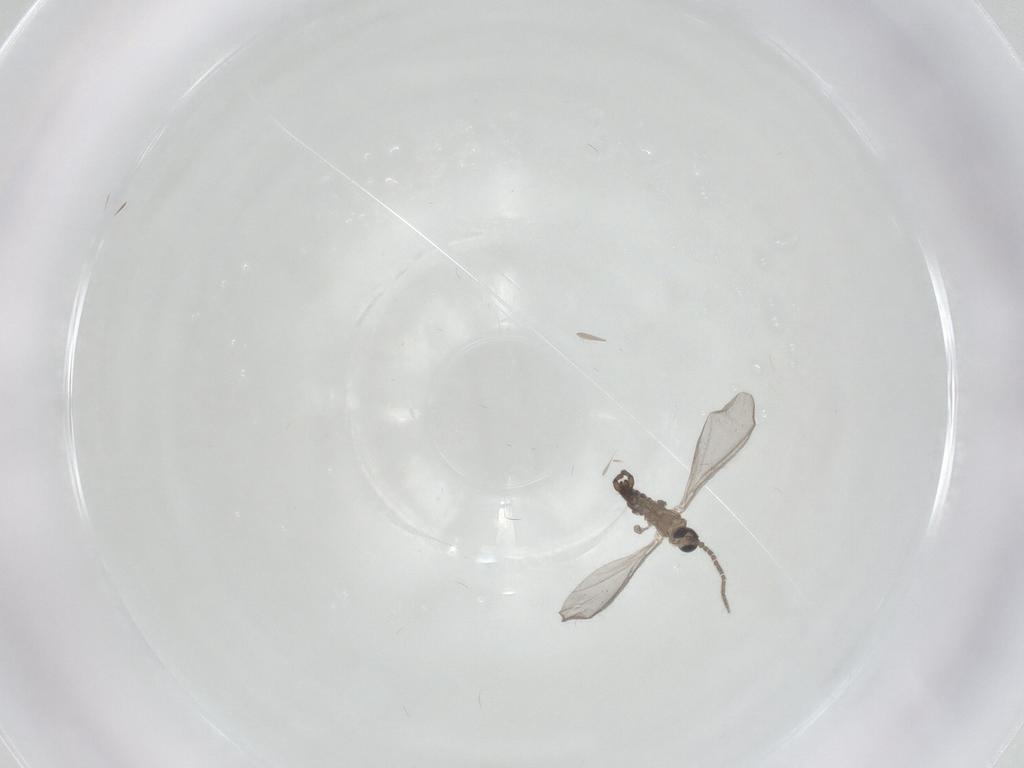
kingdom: Animalia
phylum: Arthropoda
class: Insecta
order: Diptera
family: Sciaridae
